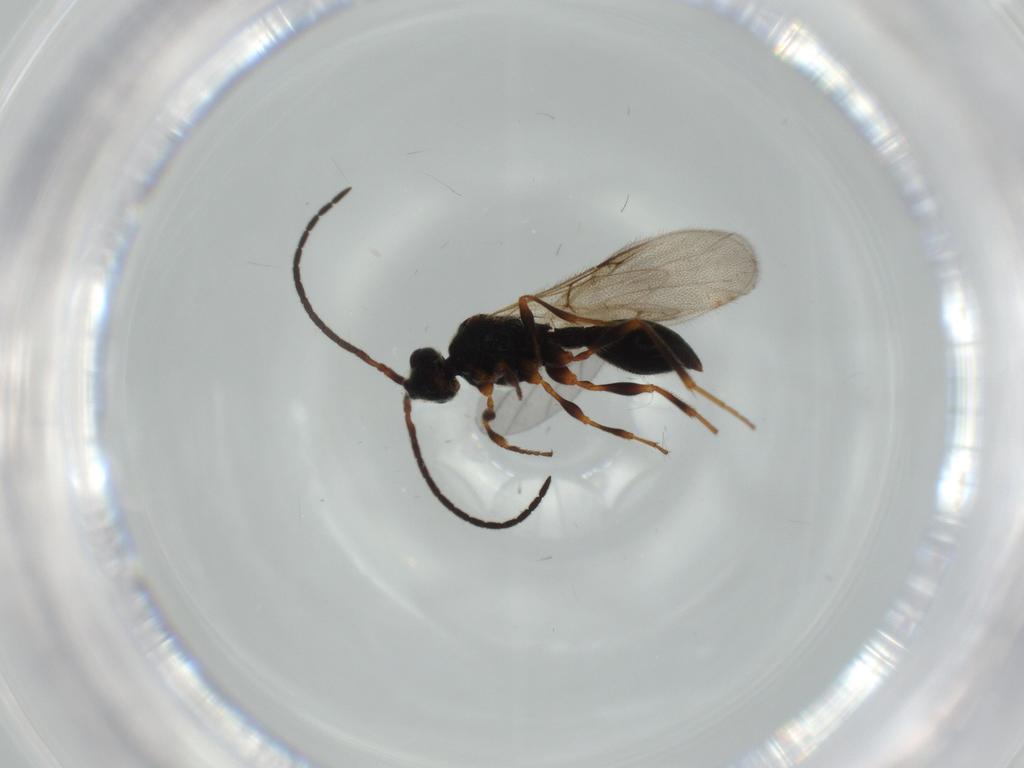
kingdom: Animalia
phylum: Arthropoda
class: Insecta
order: Hymenoptera
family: Diapriidae
